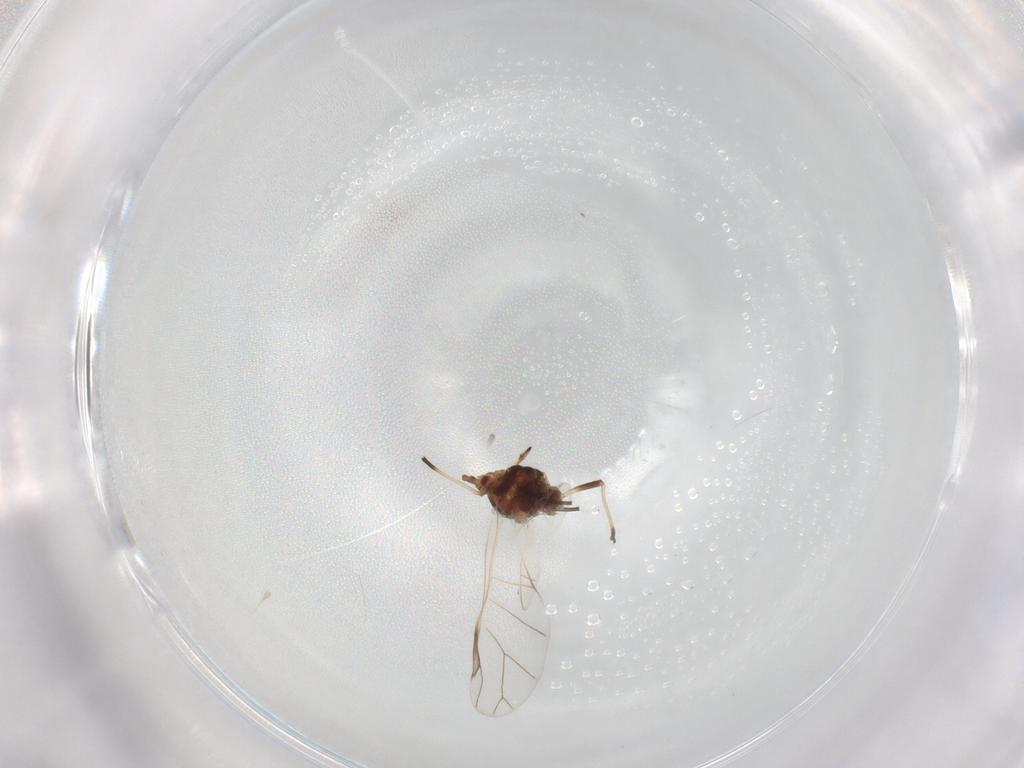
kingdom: Animalia
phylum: Arthropoda
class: Insecta
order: Hemiptera
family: Aphididae
